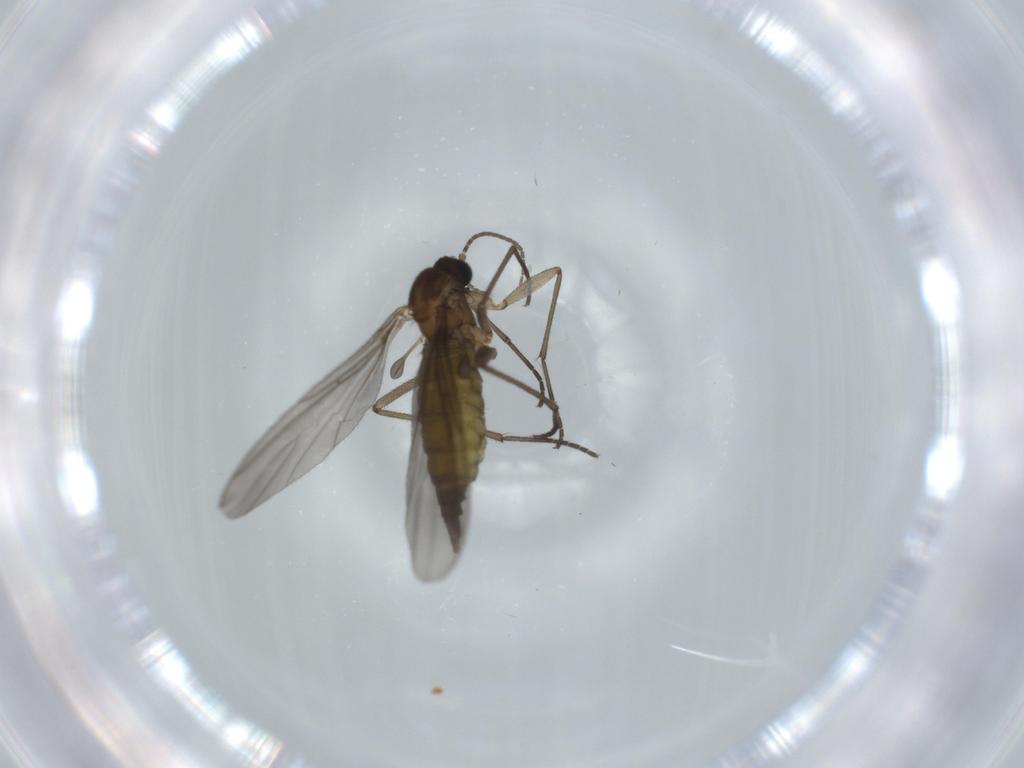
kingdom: Animalia
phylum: Arthropoda
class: Insecta
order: Diptera
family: Sciaridae
